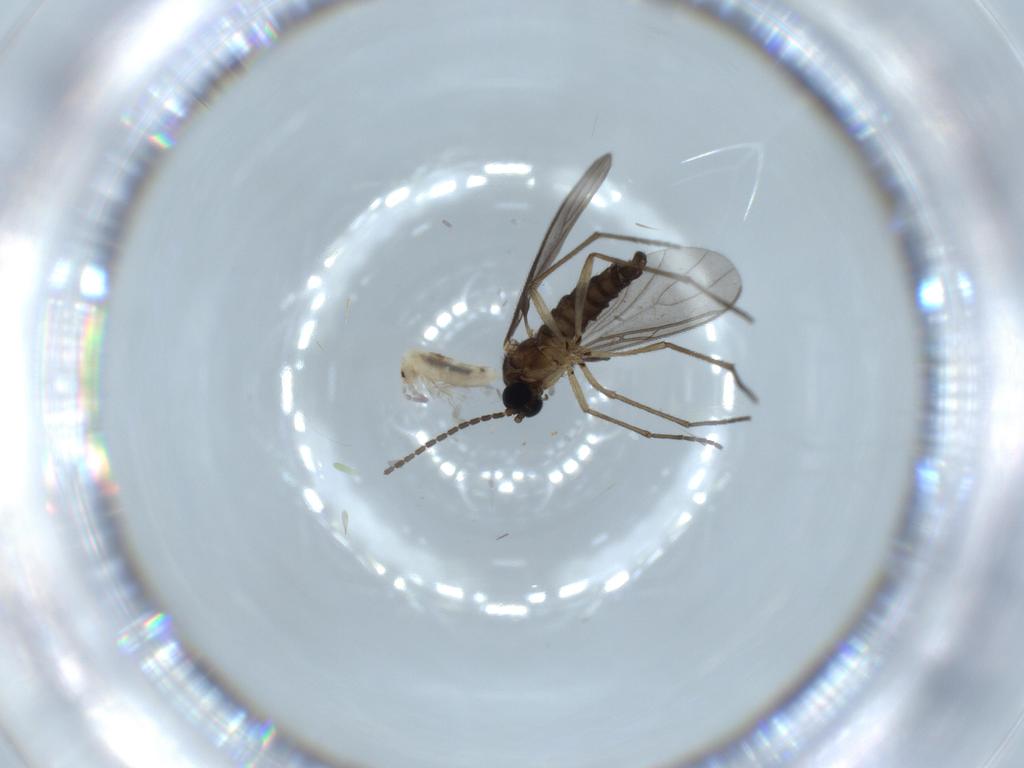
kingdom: Animalia
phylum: Arthropoda
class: Collembola
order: Entomobryomorpha
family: Entomobryidae
